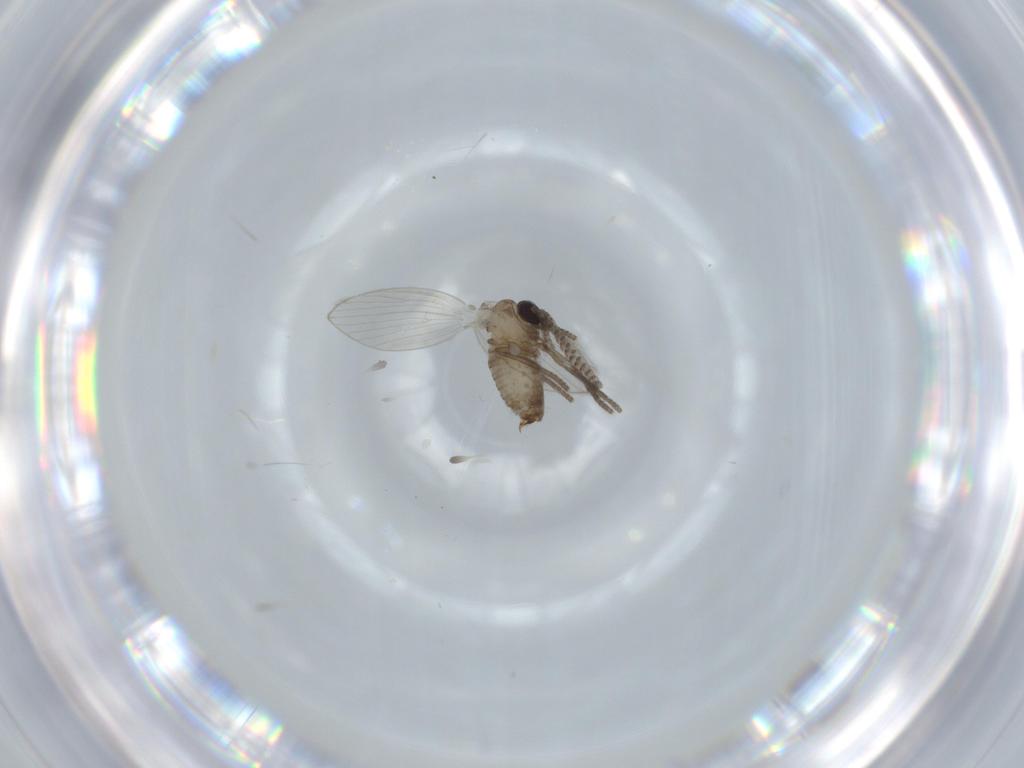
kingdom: Animalia
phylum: Arthropoda
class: Insecta
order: Diptera
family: Psychodidae
